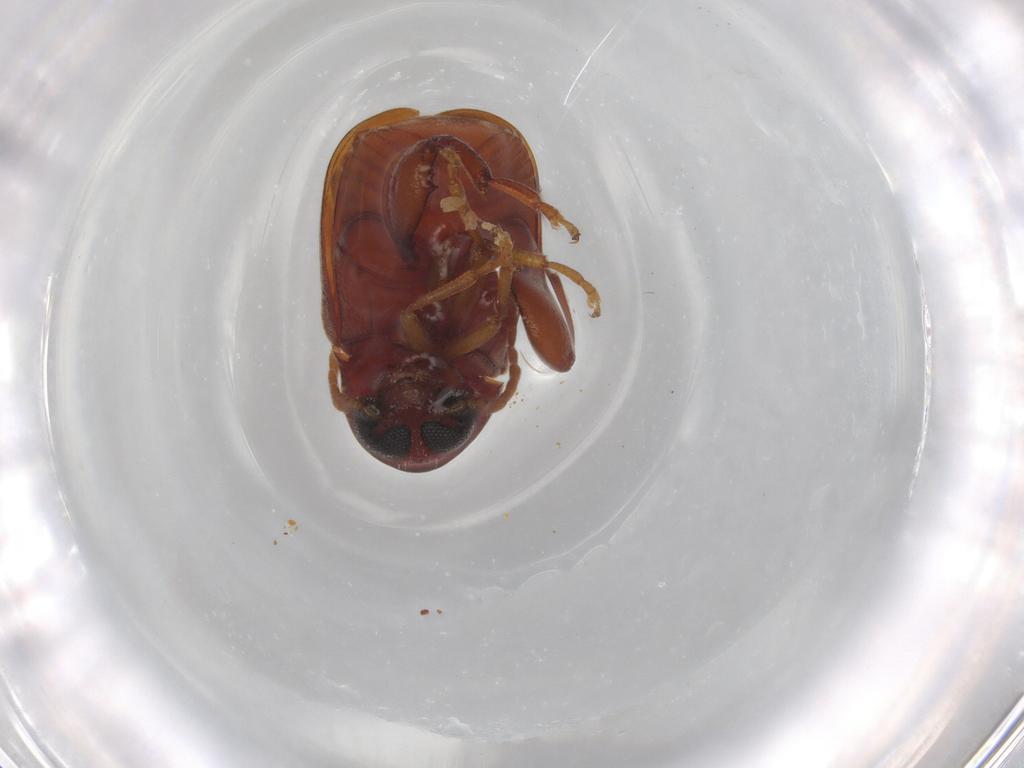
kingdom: Animalia
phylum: Arthropoda
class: Insecta
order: Coleoptera
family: Chrysomelidae
